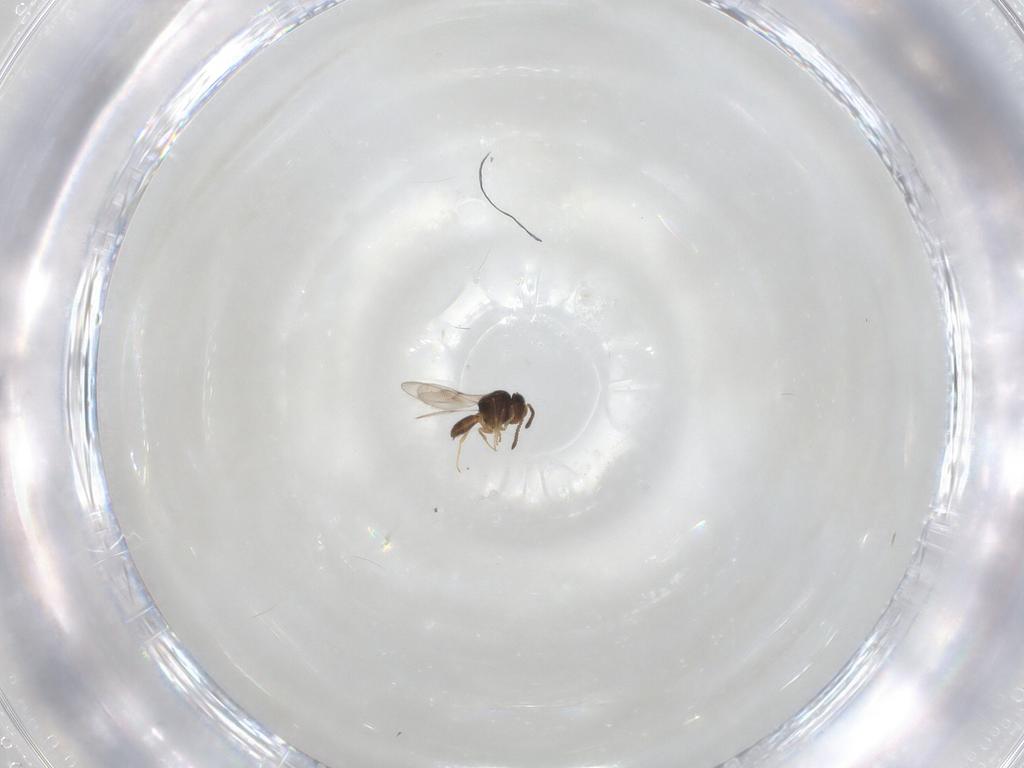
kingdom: Animalia
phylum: Arthropoda
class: Insecta
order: Hymenoptera
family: Scelionidae
